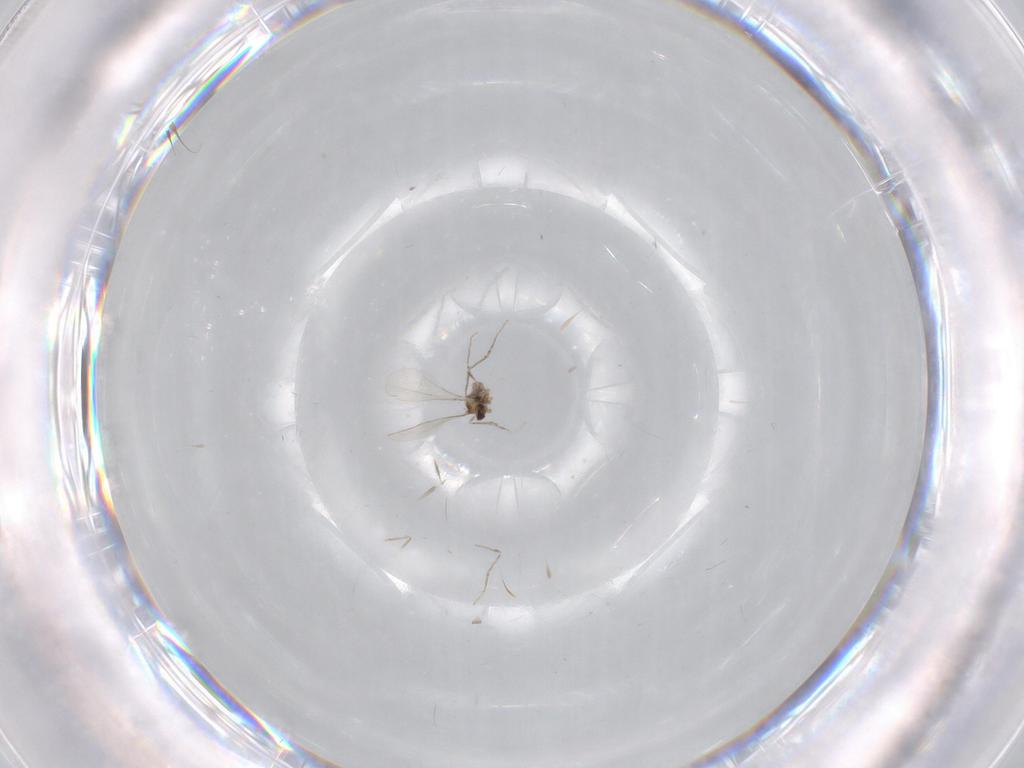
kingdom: Animalia
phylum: Arthropoda
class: Insecta
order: Diptera
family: Cecidomyiidae
